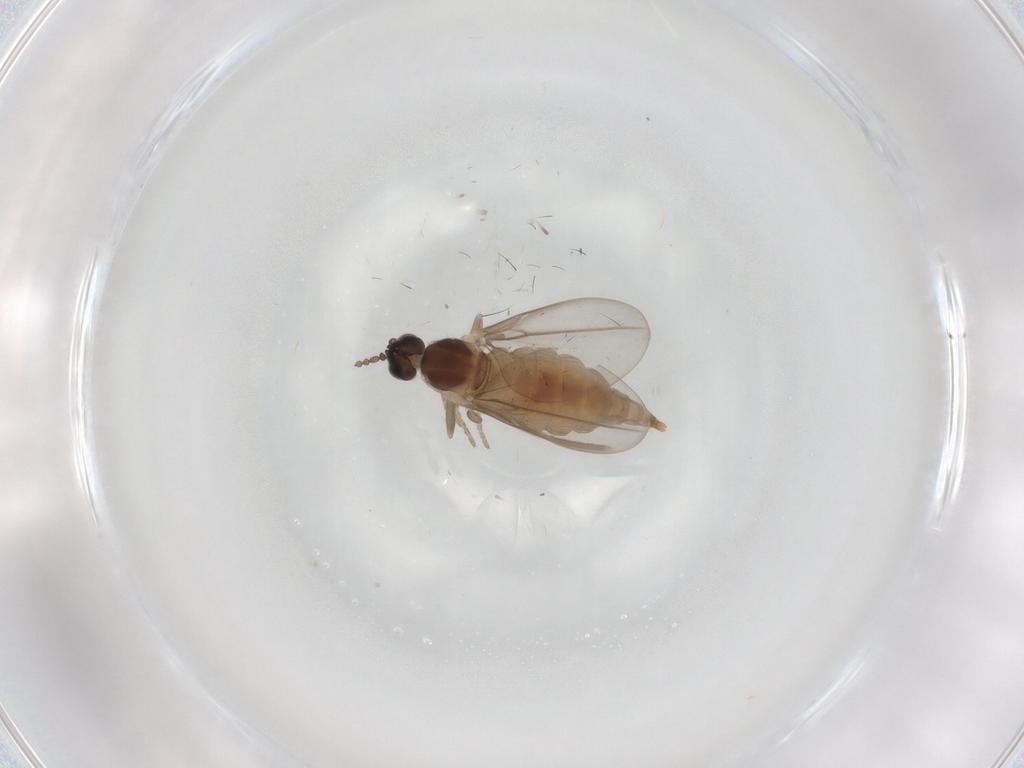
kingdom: Animalia
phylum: Arthropoda
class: Insecta
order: Diptera
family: Cecidomyiidae
